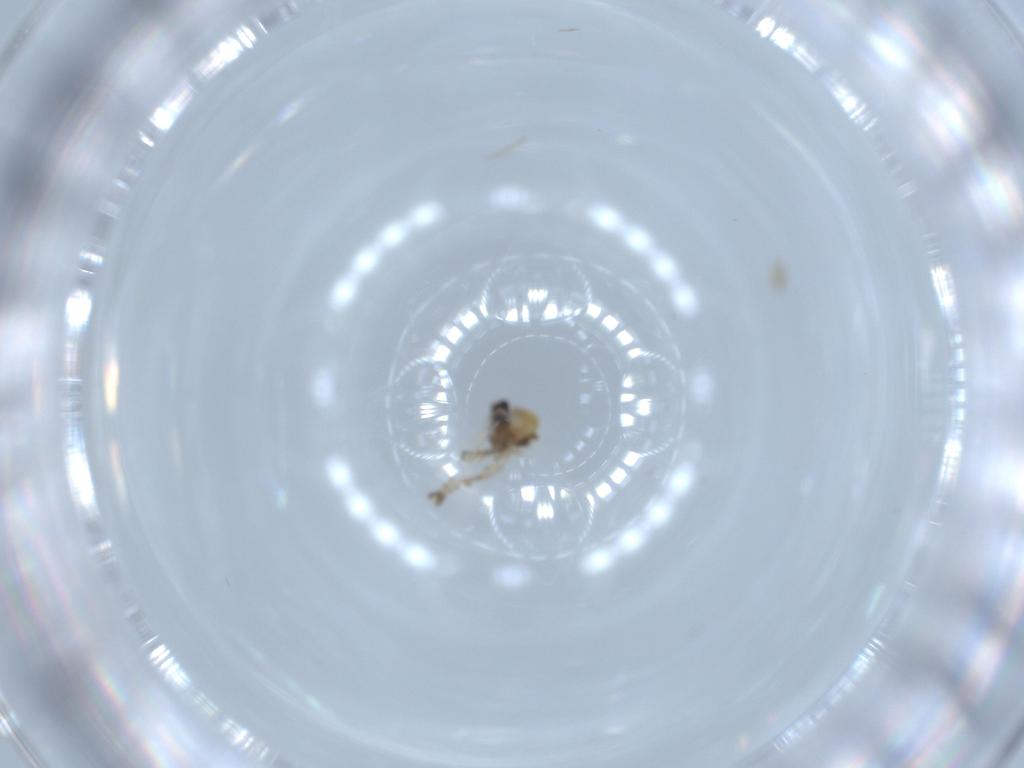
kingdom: Animalia
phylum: Arthropoda
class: Insecta
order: Diptera
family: Ceratopogonidae
